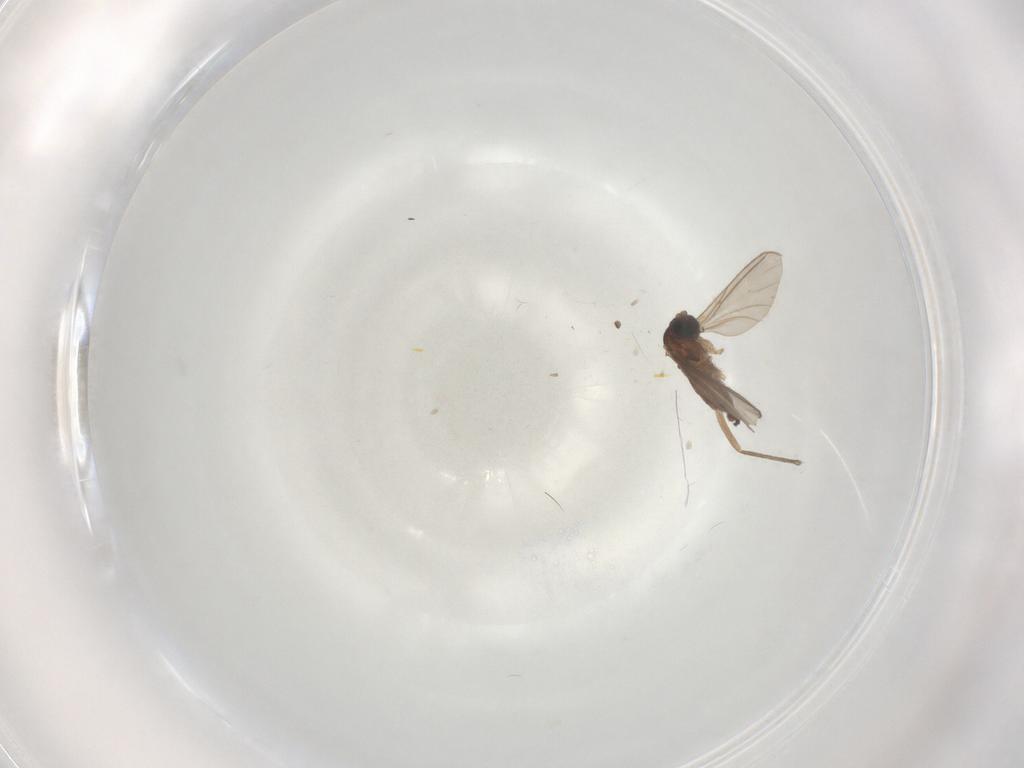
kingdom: Animalia
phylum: Arthropoda
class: Insecta
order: Diptera
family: Sciaridae
